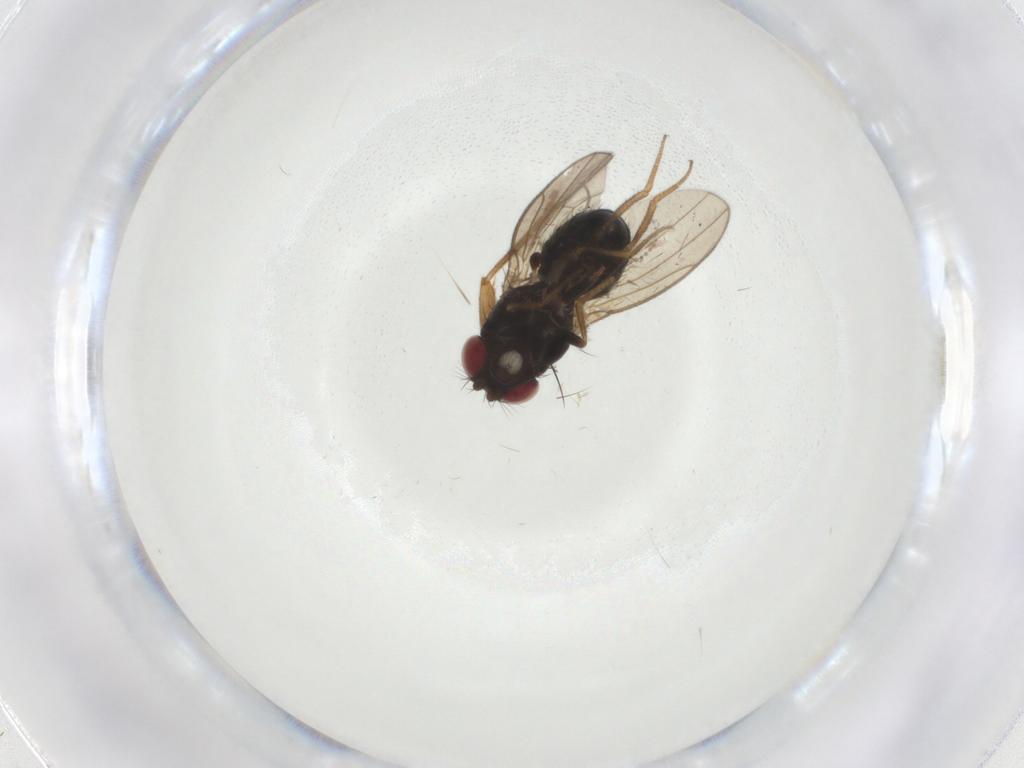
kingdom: Animalia
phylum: Arthropoda
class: Insecta
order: Diptera
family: Drosophilidae
